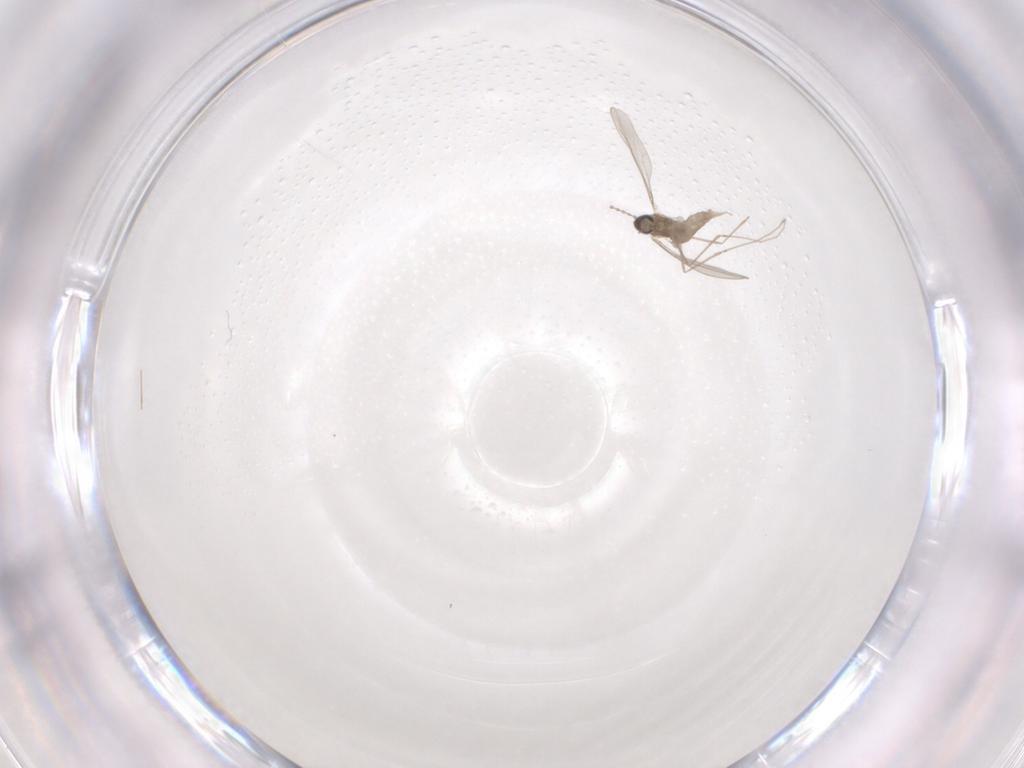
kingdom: Animalia
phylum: Arthropoda
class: Insecta
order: Diptera
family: Cecidomyiidae
